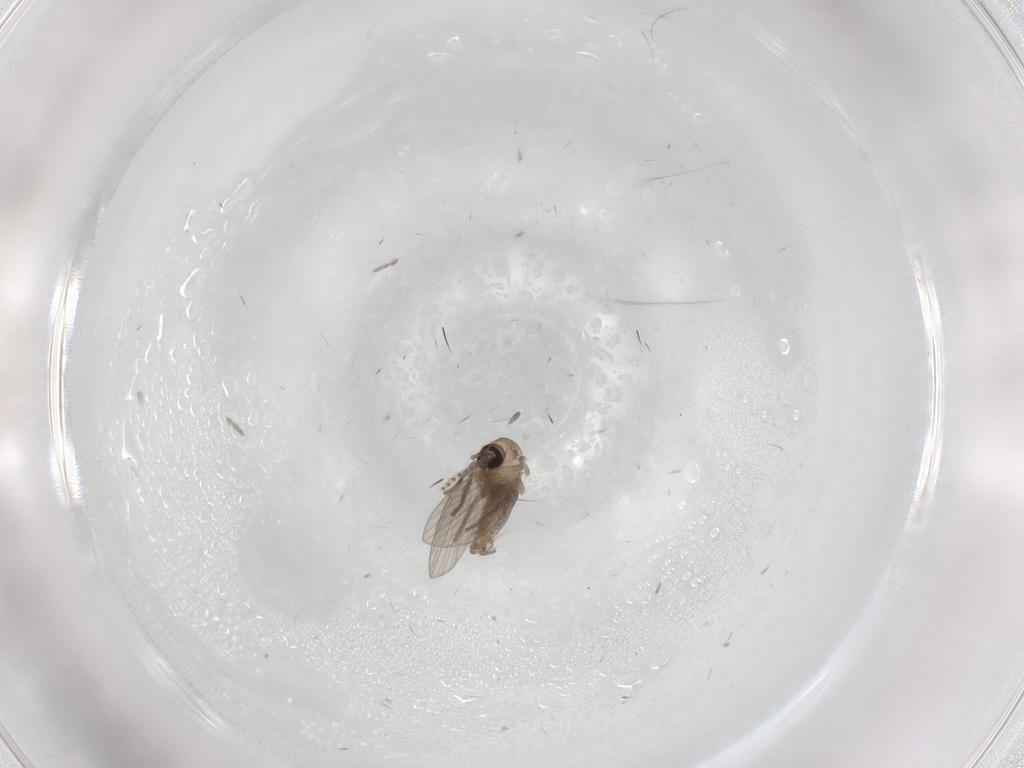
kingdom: Animalia
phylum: Arthropoda
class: Insecta
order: Diptera
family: Psychodidae
